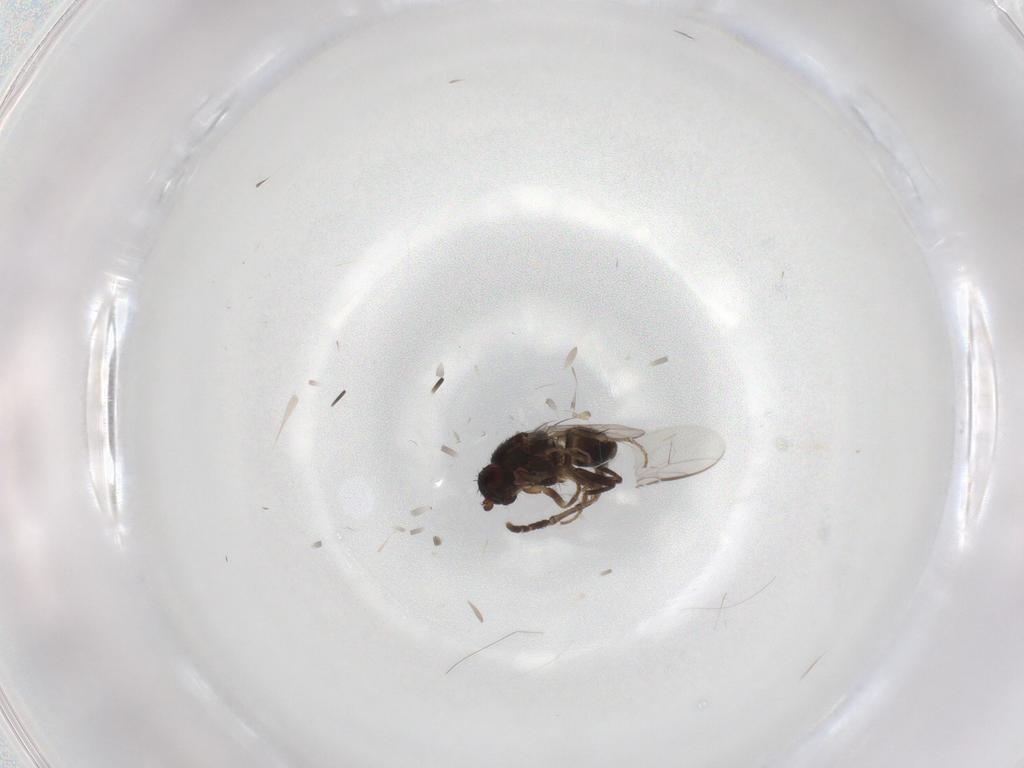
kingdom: Animalia
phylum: Arthropoda
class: Insecta
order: Diptera
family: Sphaeroceridae
